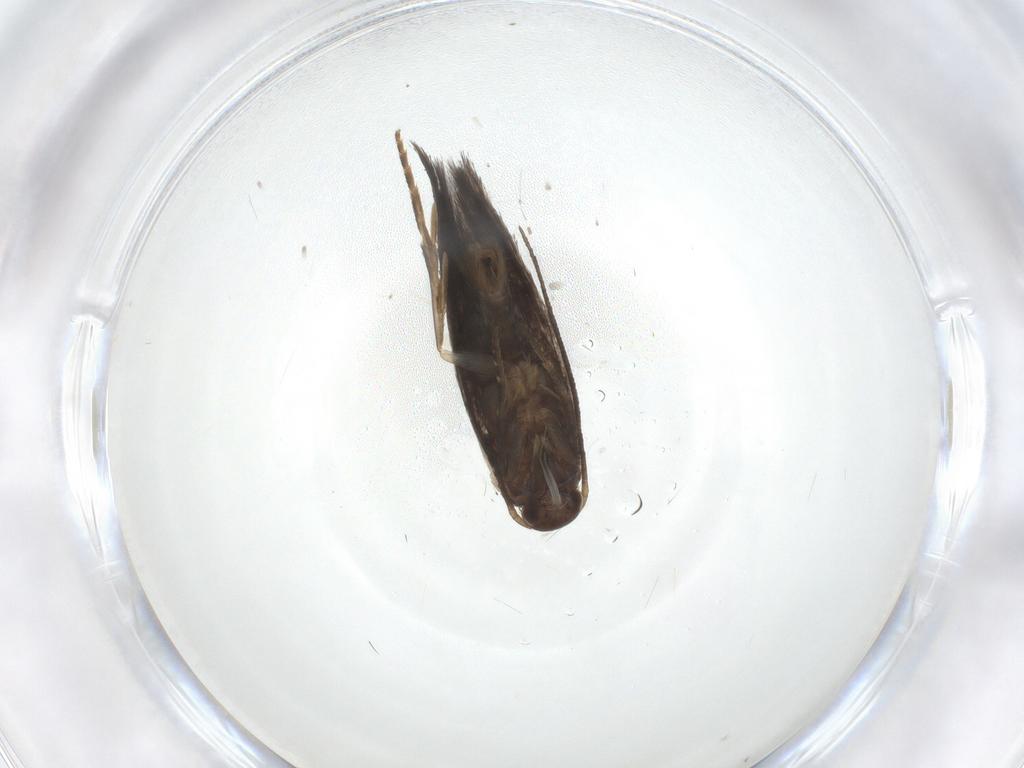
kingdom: Animalia
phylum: Arthropoda
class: Insecta
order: Lepidoptera
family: Elachistidae
